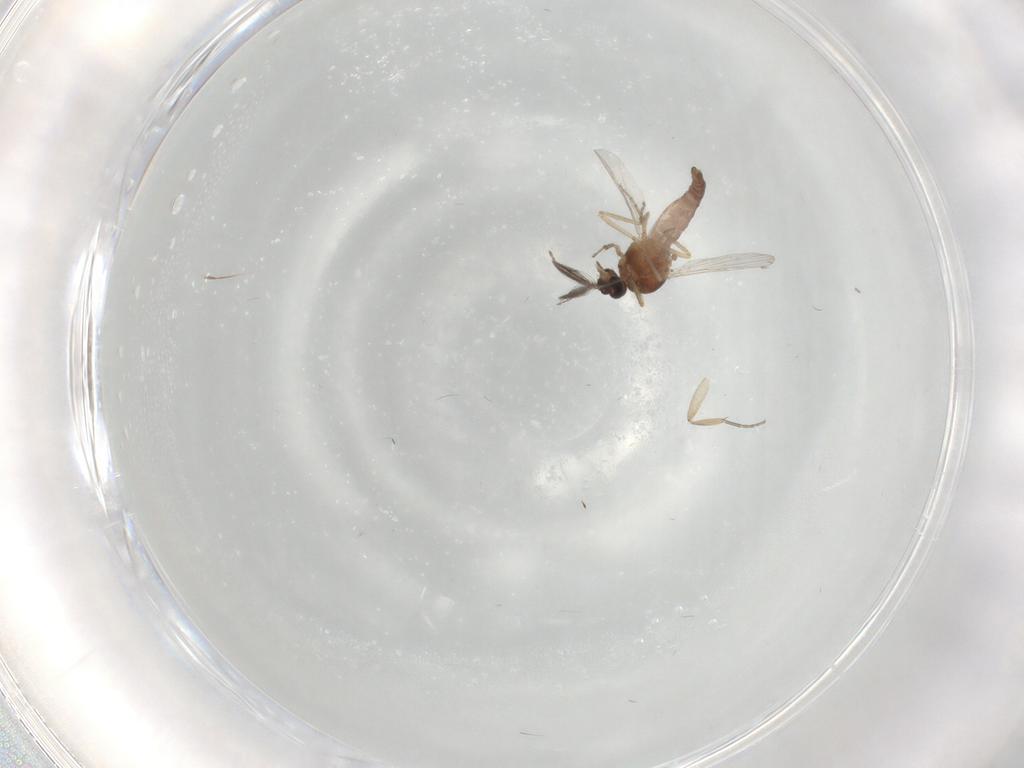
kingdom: Animalia
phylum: Arthropoda
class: Insecta
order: Diptera
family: Ceratopogonidae
